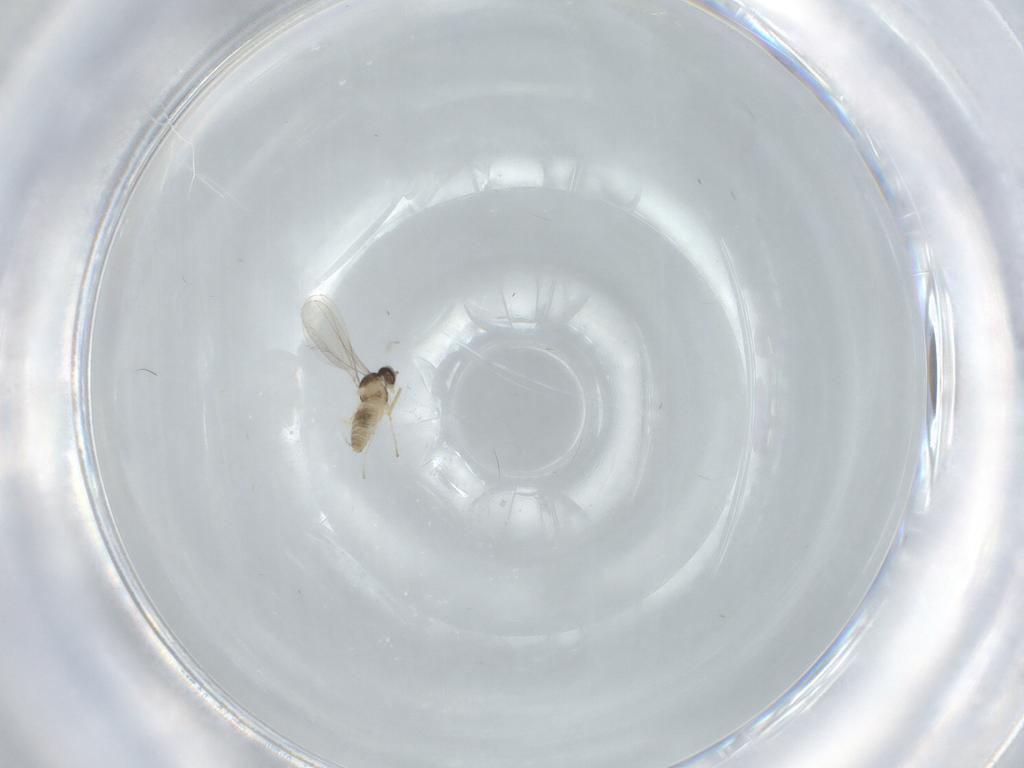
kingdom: Animalia
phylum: Arthropoda
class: Insecta
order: Diptera
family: Cecidomyiidae
